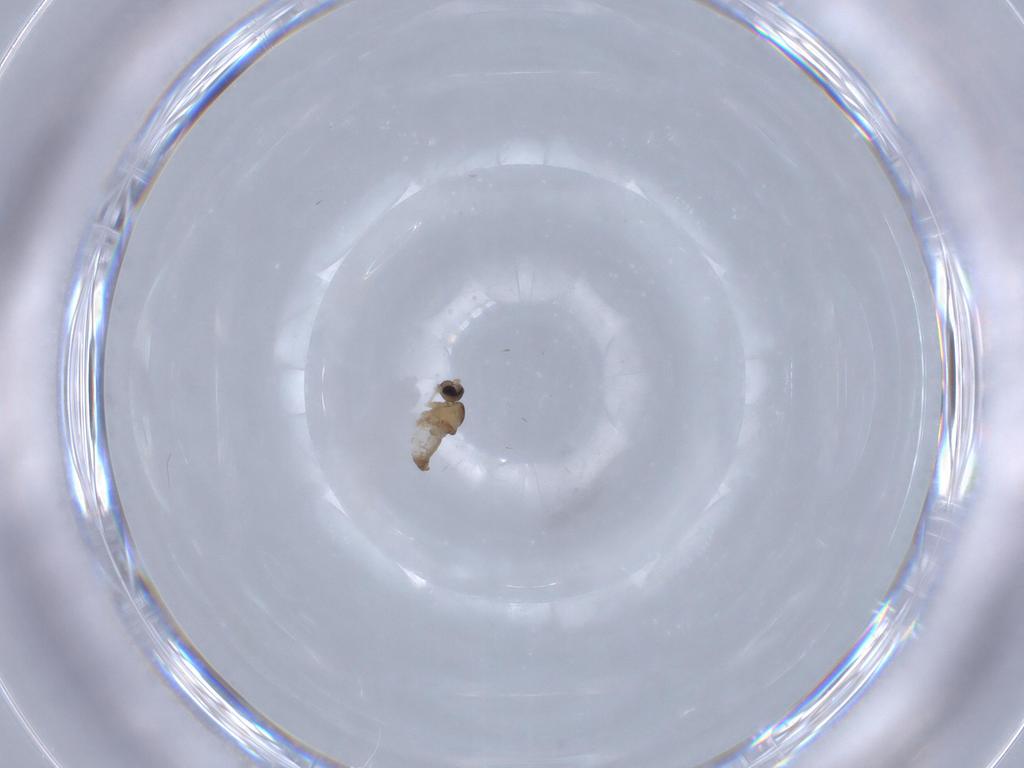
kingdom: Animalia
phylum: Arthropoda
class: Insecta
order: Diptera
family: Cecidomyiidae
